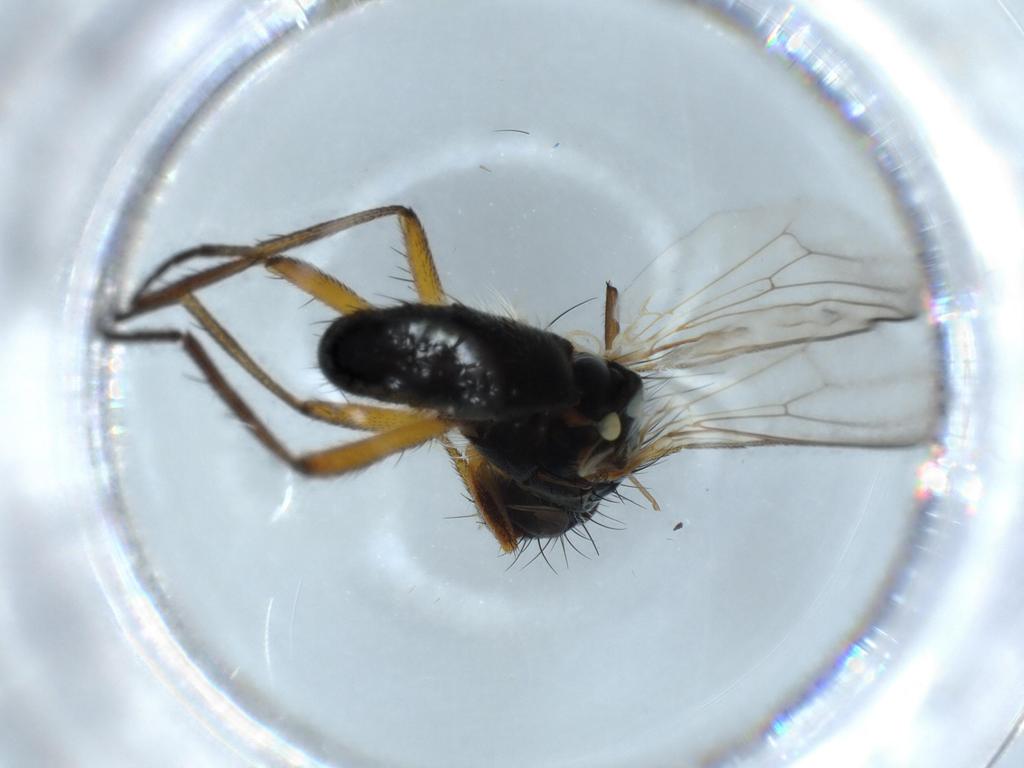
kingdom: Animalia
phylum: Arthropoda
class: Insecta
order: Diptera
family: Scathophagidae
